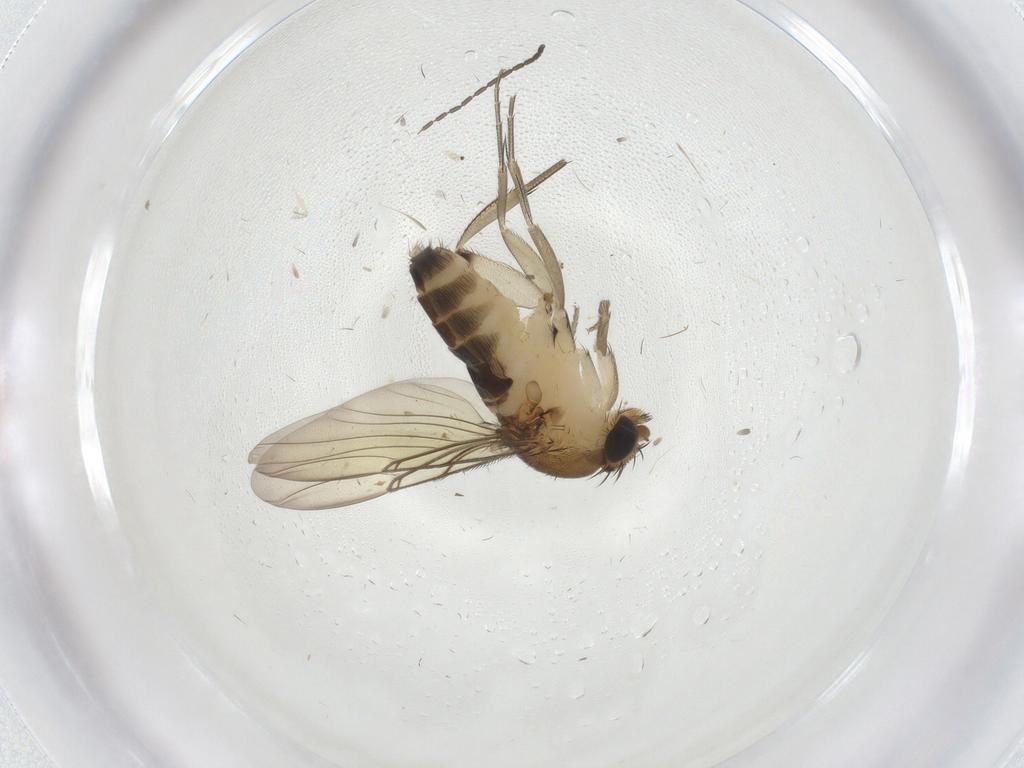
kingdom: Animalia
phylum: Arthropoda
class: Insecta
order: Diptera
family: Phoridae
